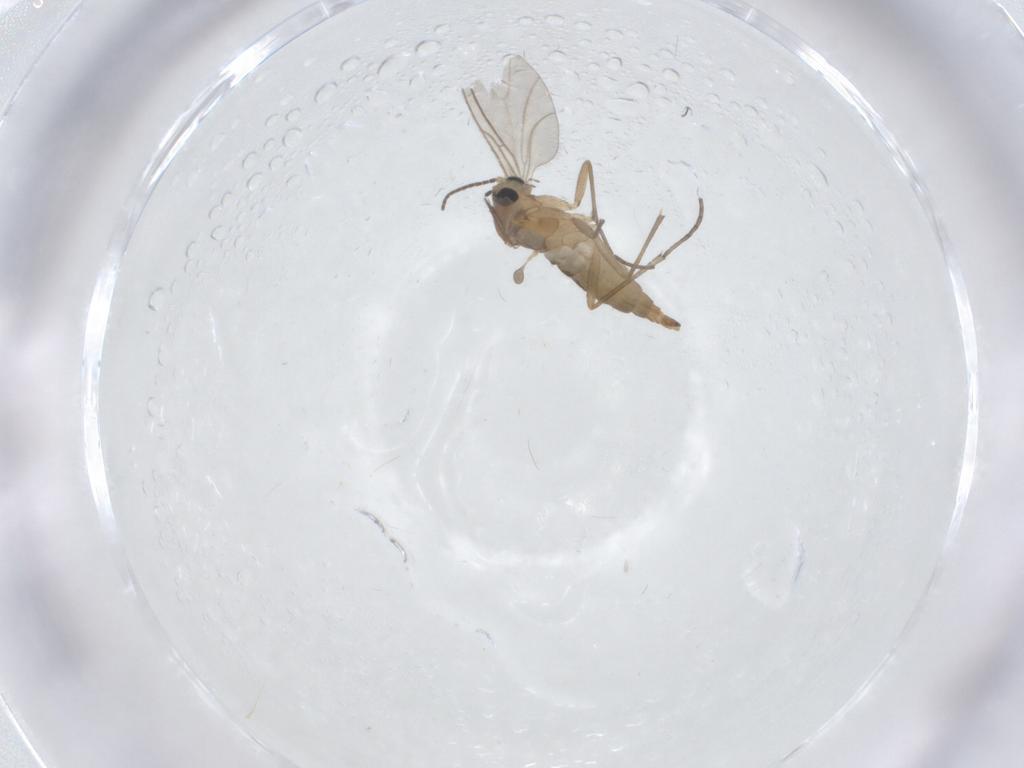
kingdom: Animalia
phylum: Arthropoda
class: Insecta
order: Diptera
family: Sciaridae
